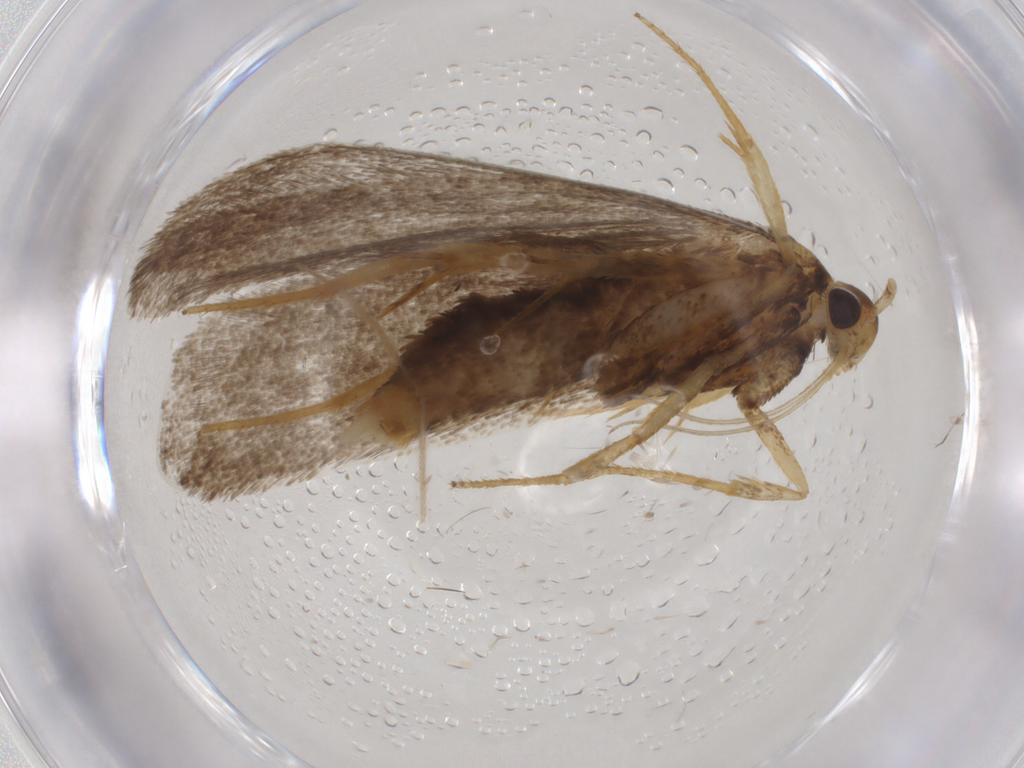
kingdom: Animalia
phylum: Arthropoda
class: Insecta
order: Lepidoptera
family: Lecithoceridae
